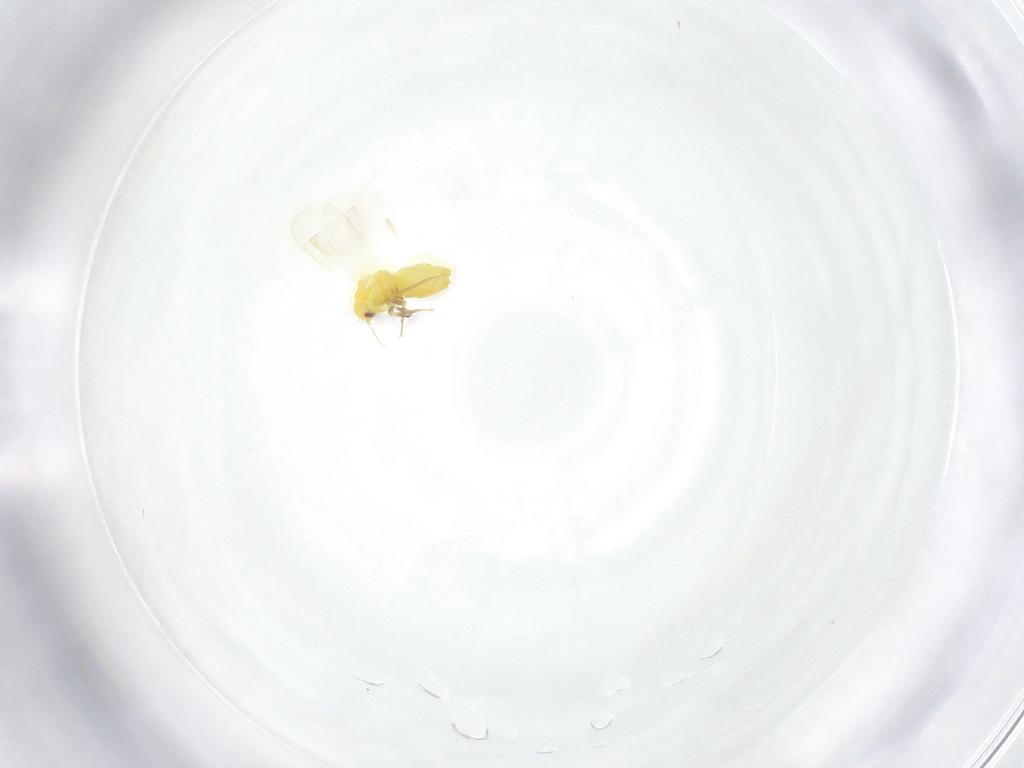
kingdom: Animalia
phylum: Arthropoda
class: Insecta
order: Hemiptera
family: Aleyrodidae
